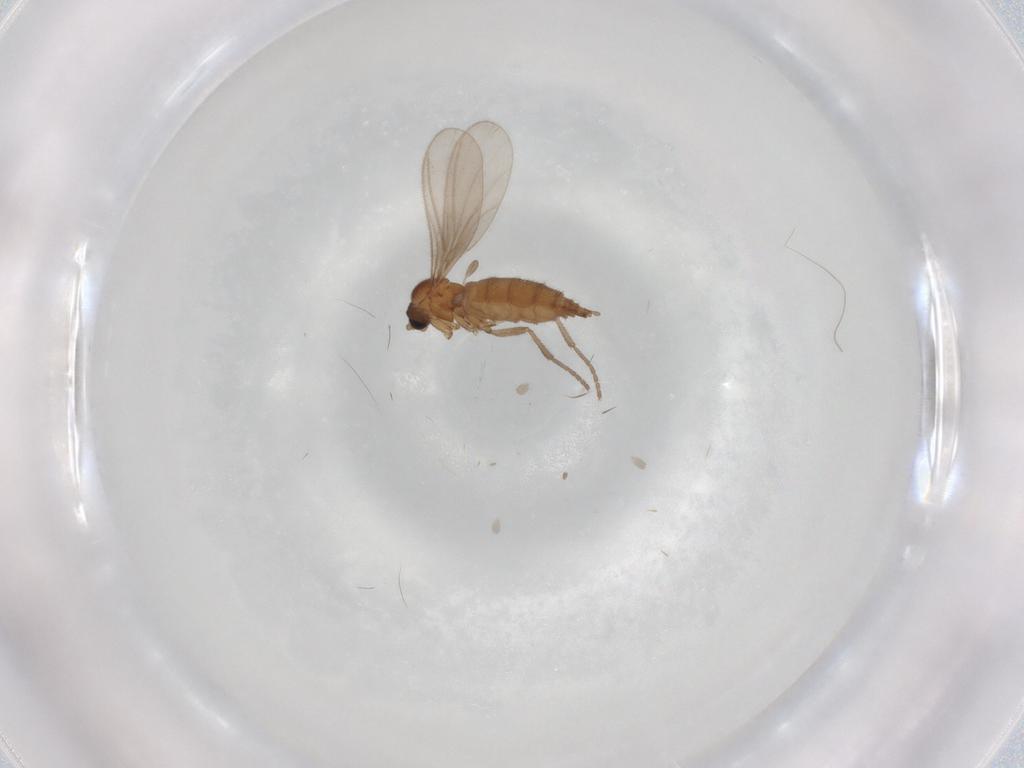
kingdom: Animalia
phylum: Arthropoda
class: Insecta
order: Diptera
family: Sciaridae
